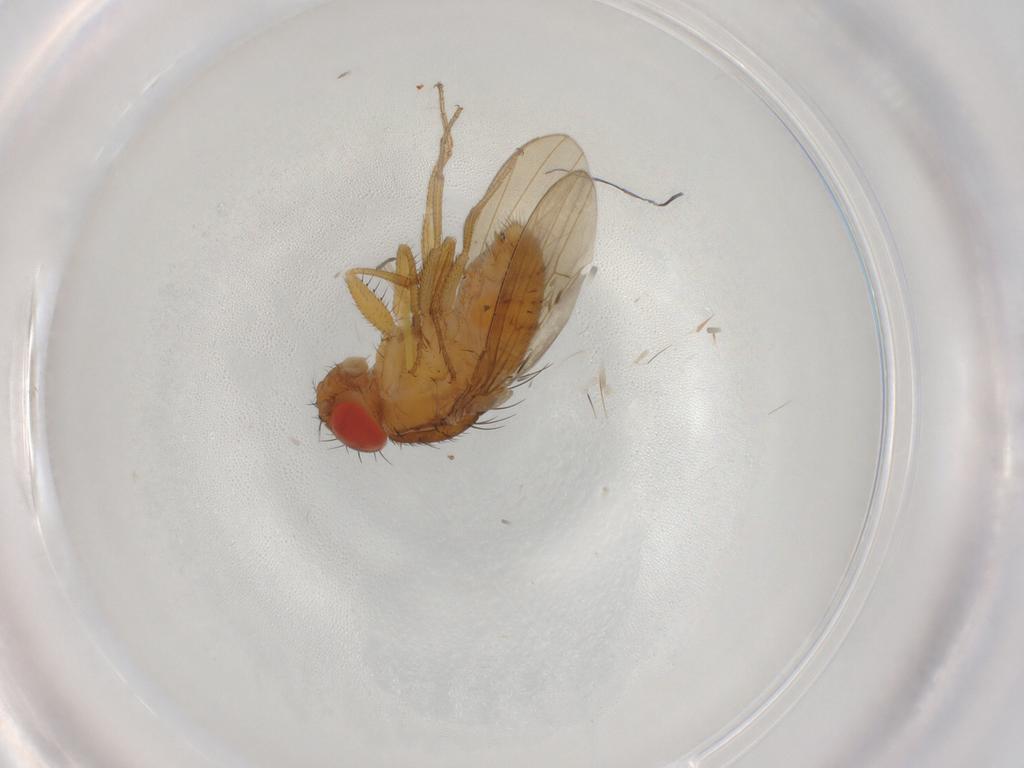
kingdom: Animalia
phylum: Arthropoda
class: Insecta
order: Diptera
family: Drosophilidae
